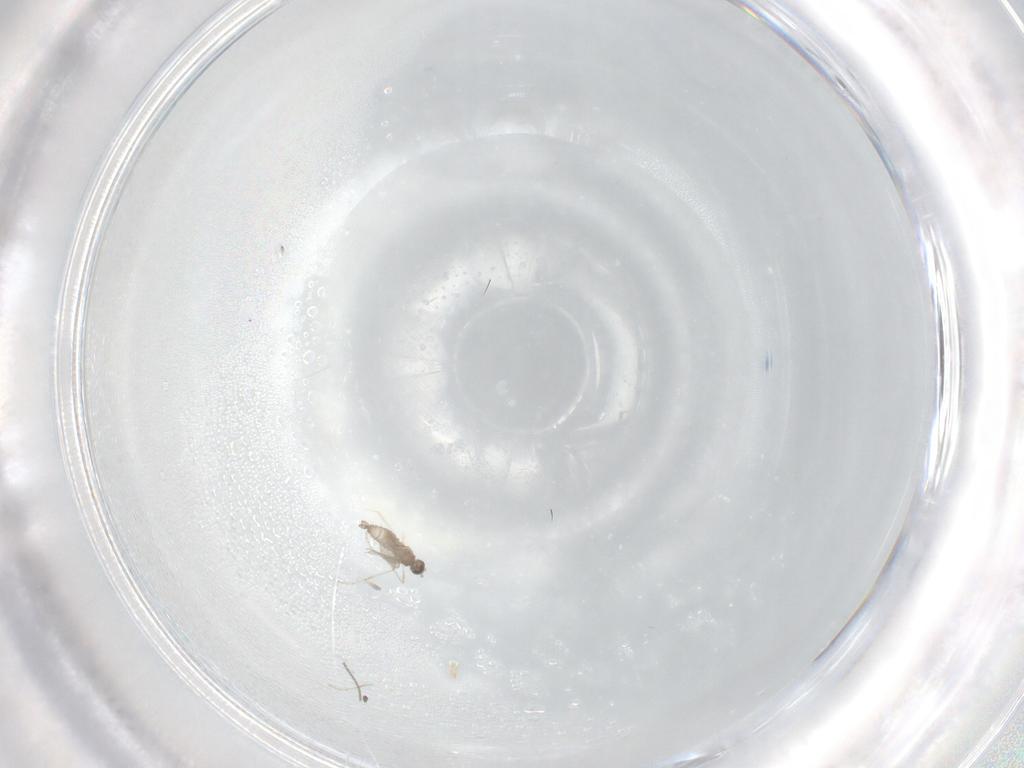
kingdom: Animalia
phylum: Arthropoda
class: Insecta
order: Diptera
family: Cecidomyiidae
